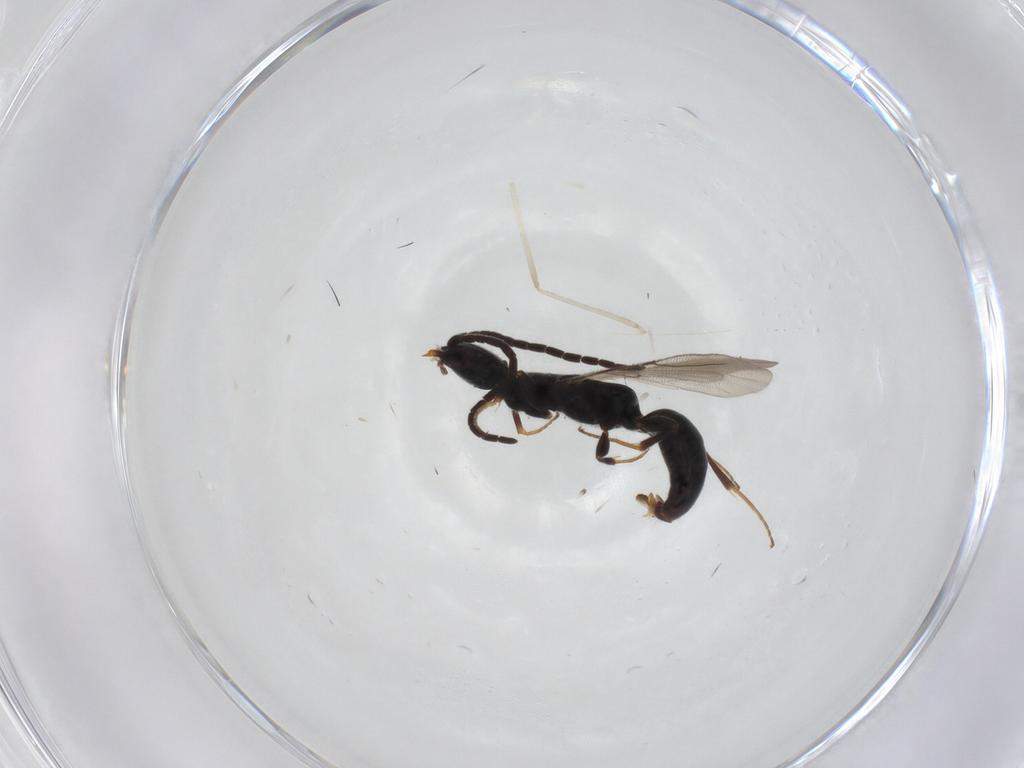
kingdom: Animalia
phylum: Arthropoda
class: Insecta
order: Hymenoptera
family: Bethylidae
